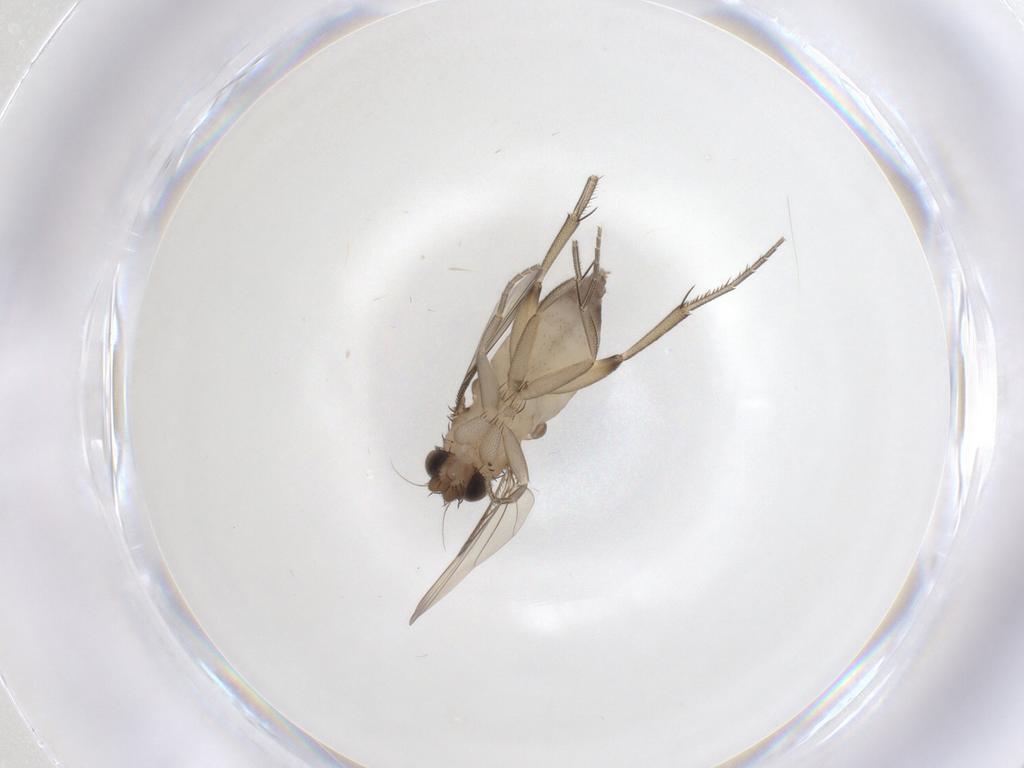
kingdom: Animalia
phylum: Arthropoda
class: Insecta
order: Diptera
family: Phoridae
